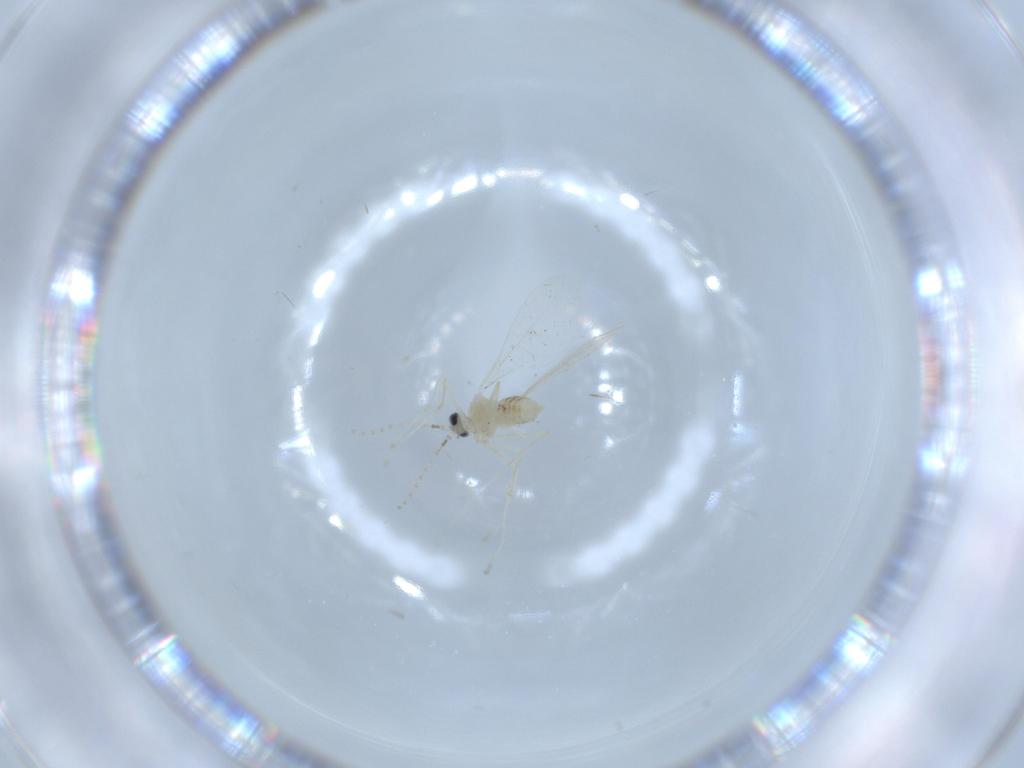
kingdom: Animalia
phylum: Arthropoda
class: Insecta
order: Diptera
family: Cecidomyiidae
